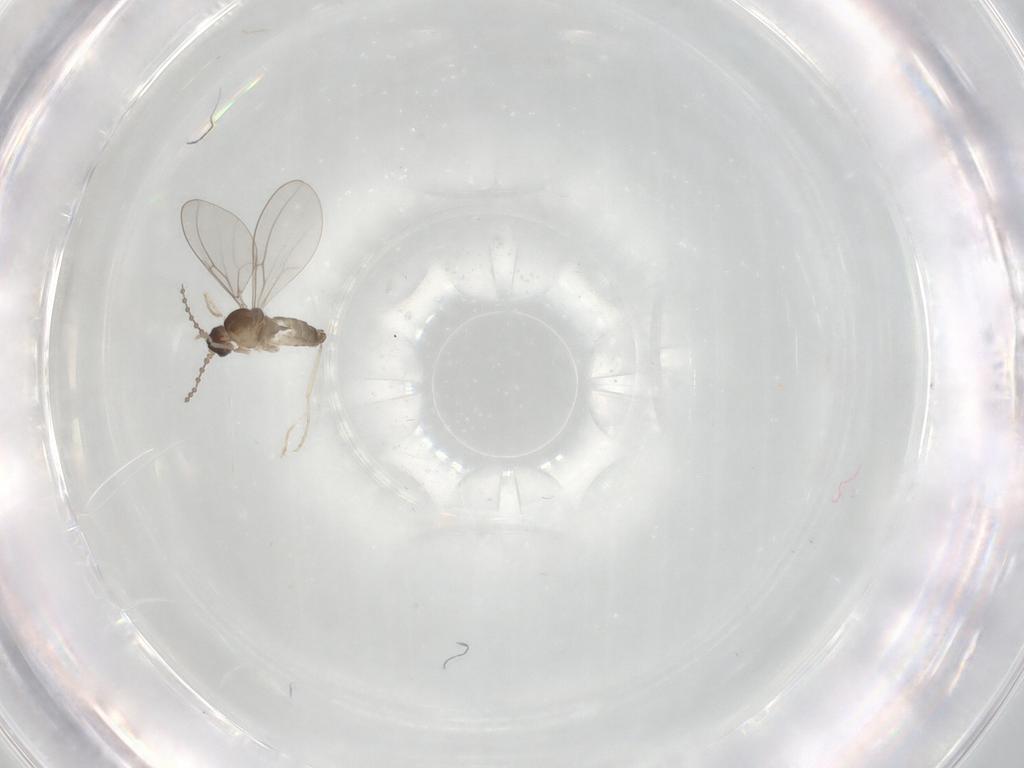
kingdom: Animalia
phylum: Arthropoda
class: Insecta
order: Diptera
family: Cecidomyiidae
